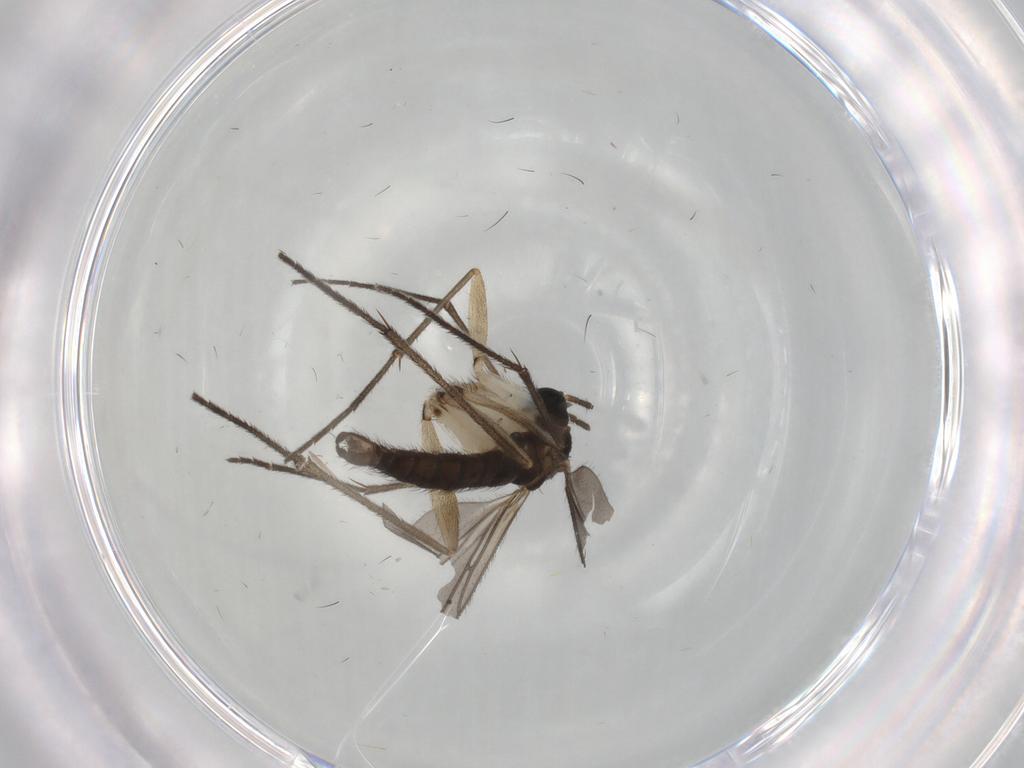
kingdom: Animalia
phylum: Arthropoda
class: Insecta
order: Diptera
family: Sciaridae
